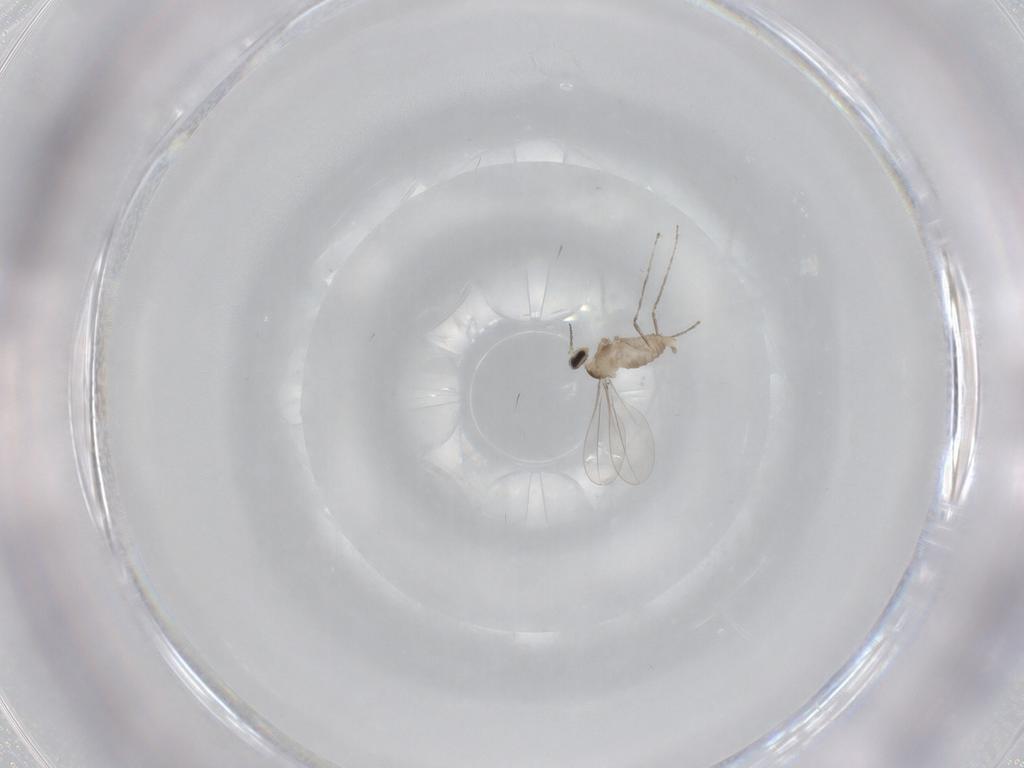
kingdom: Animalia
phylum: Arthropoda
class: Insecta
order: Diptera
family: Cecidomyiidae
